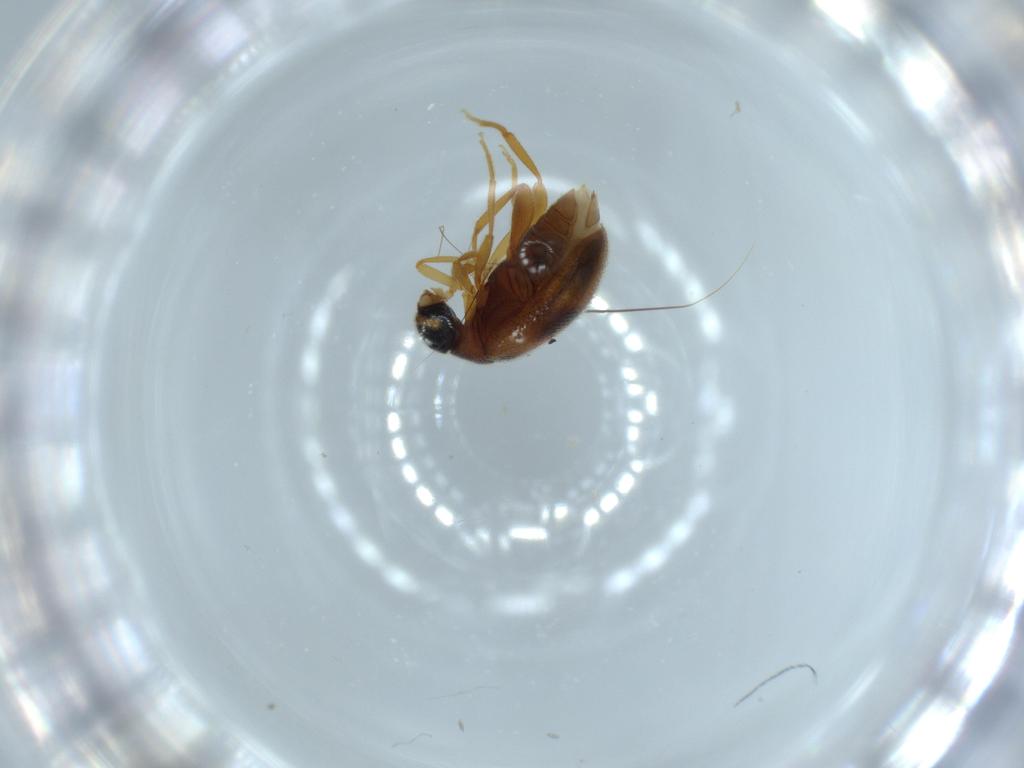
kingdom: Animalia
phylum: Arthropoda
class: Insecta
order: Coleoptera
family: Aderidae
